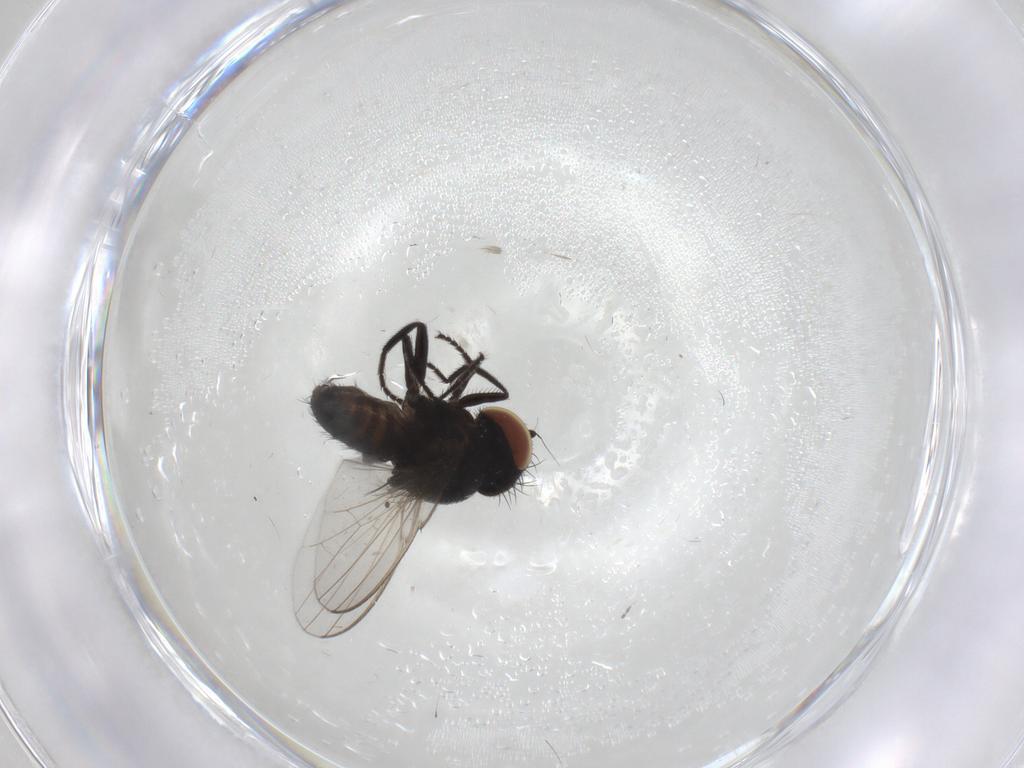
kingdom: Animalia
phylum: Arthropoda
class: Insecta
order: Diptera
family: Milichiidae
